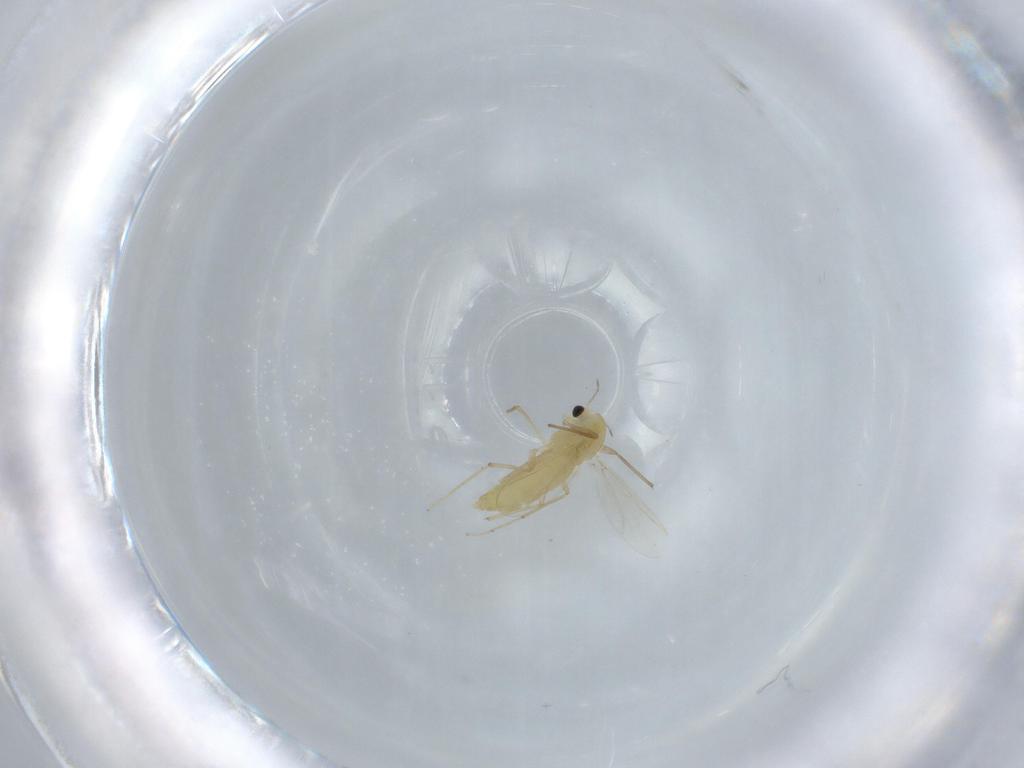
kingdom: Animalia
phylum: Arthropoda
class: Insecta
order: Diptera
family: Chironomidae
